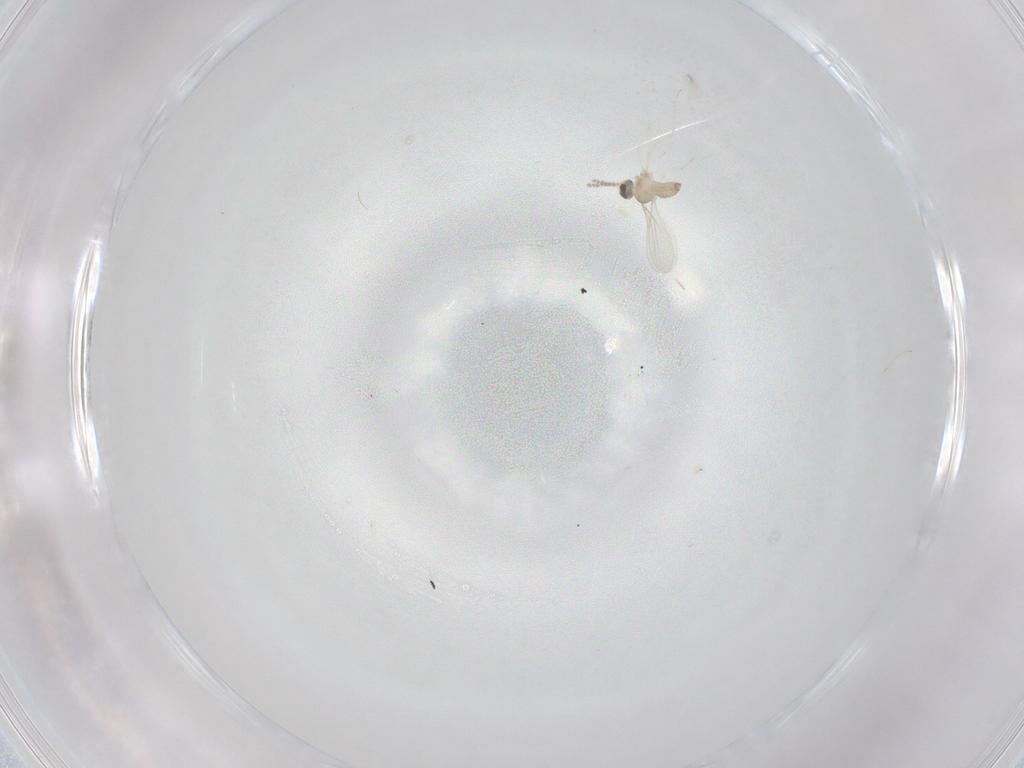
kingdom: Animalia
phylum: Arthropoda
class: Insecta
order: Diptera
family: Cecidomyiidae
